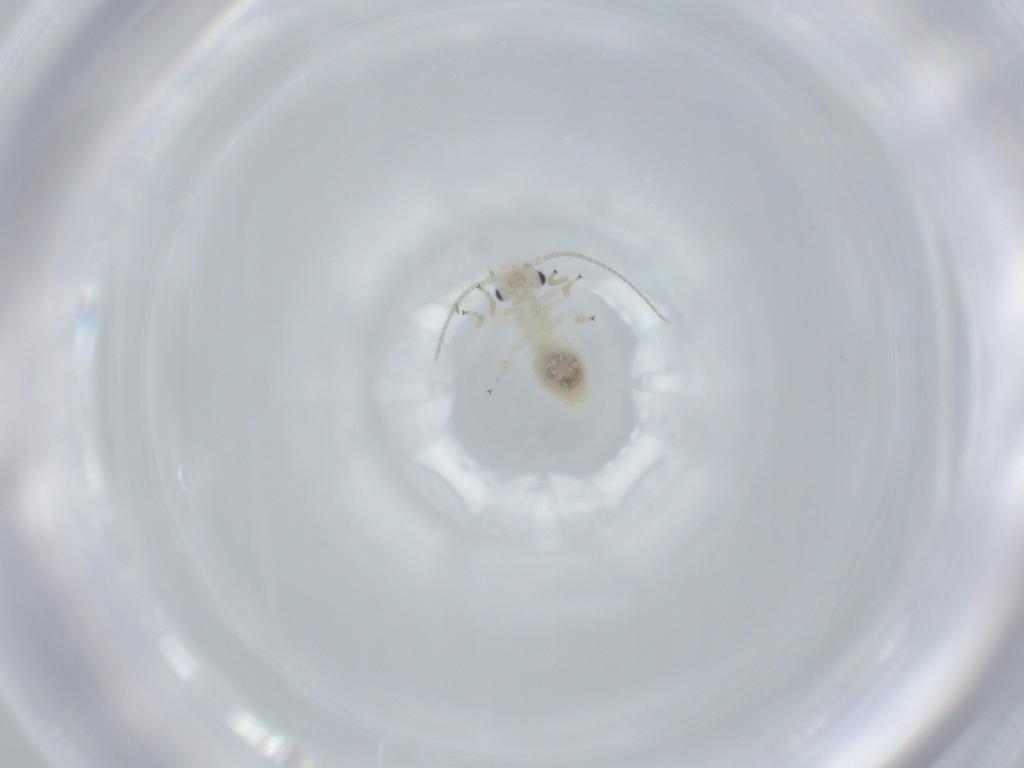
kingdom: Animalia
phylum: Arthropoda
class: Insecta
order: Psocodea
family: Caeciliusidae
